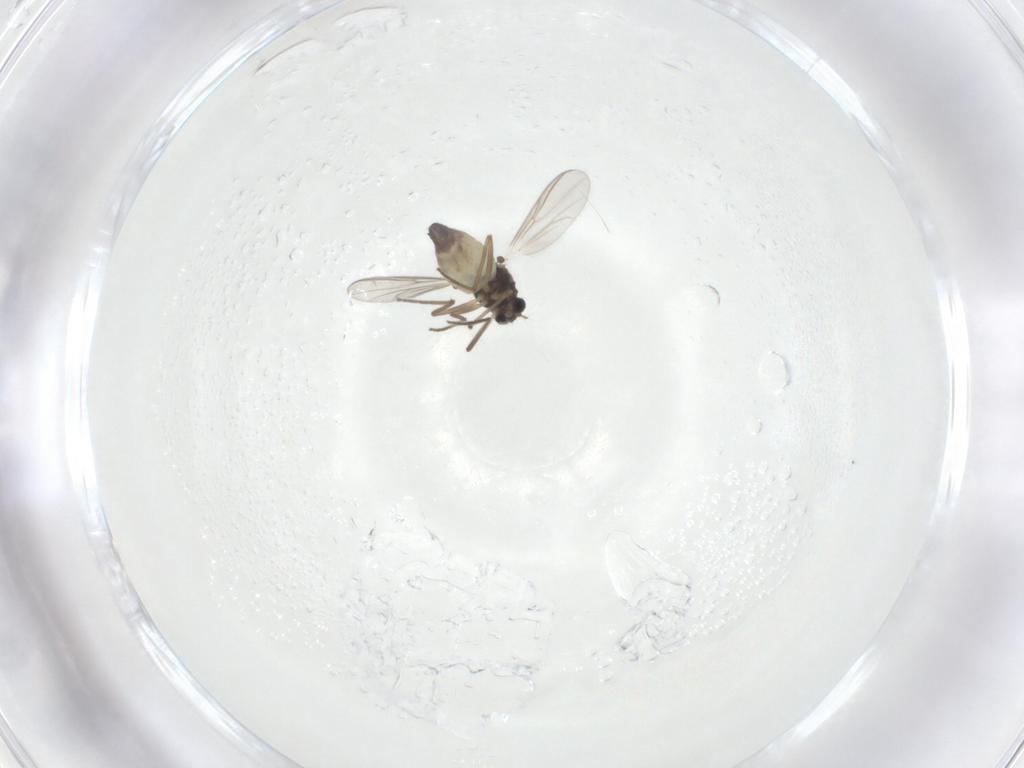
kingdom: Animalia
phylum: Arthropoda
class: Insecta
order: Diptera
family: Chironomidae
